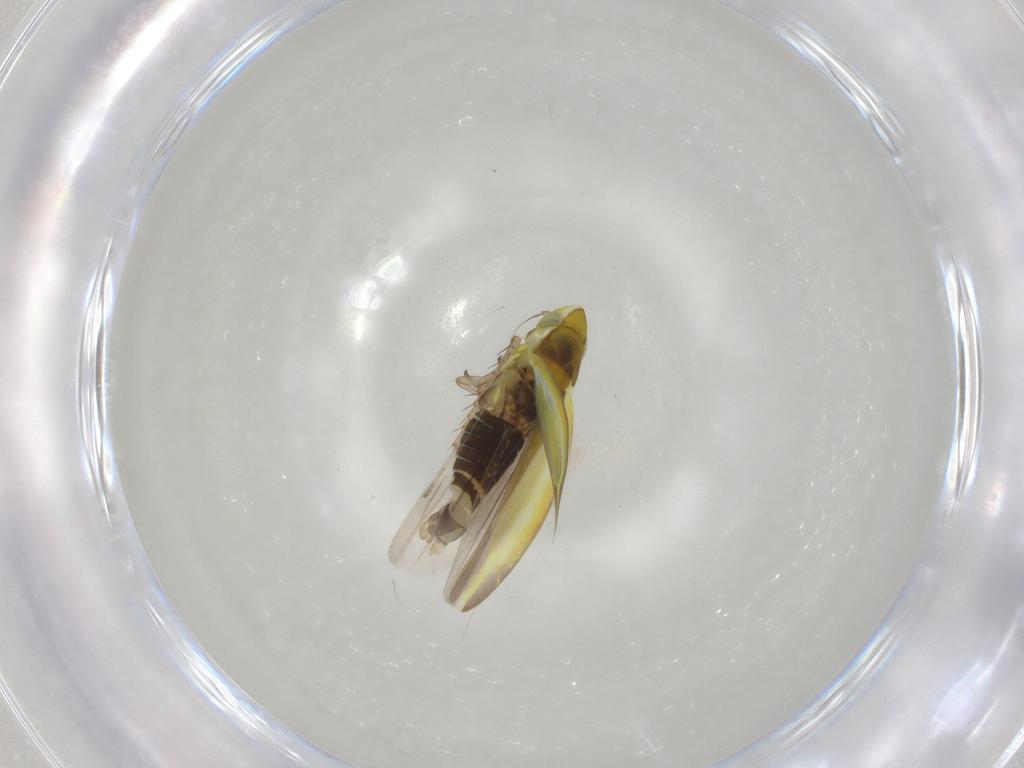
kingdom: Animalia
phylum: Arthropoda
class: Insecta
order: Hemiptera
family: Cicadellidae
